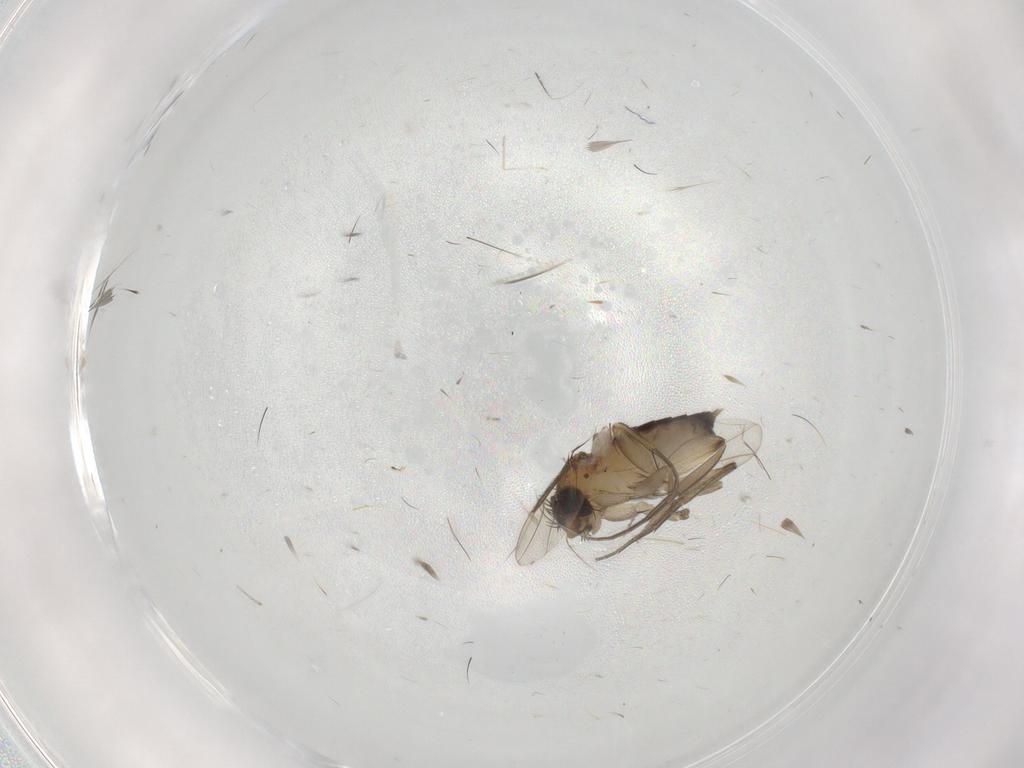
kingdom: Animalia
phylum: Arthropoda
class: Insecta
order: Diptera
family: Phoridae
